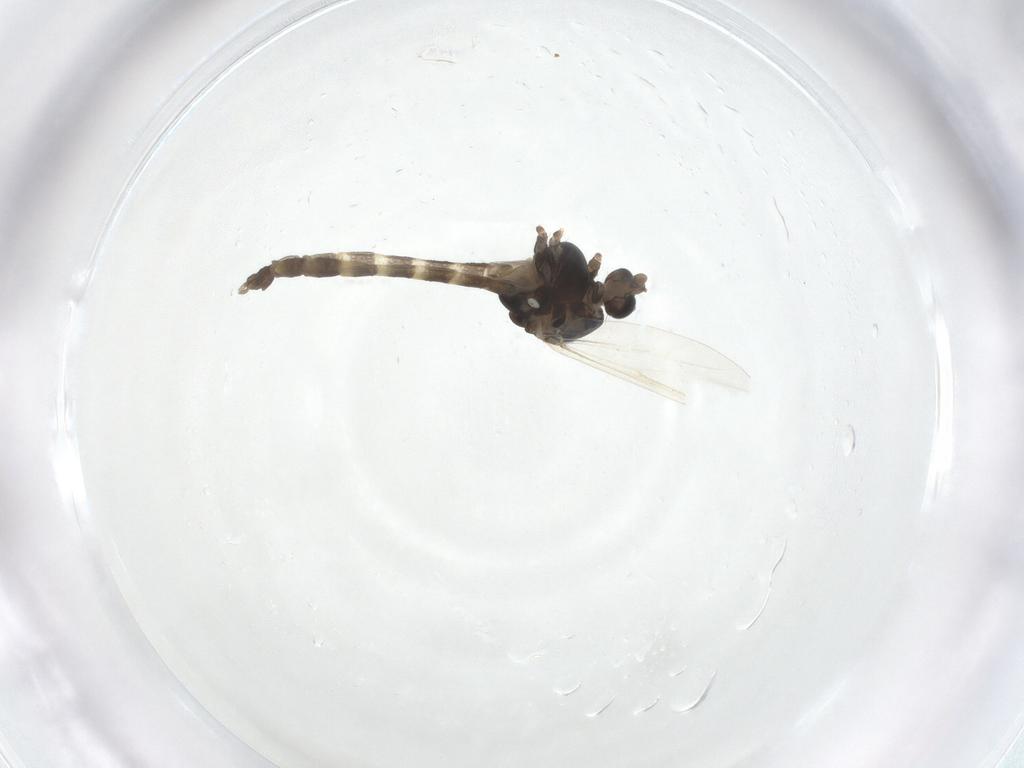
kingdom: Animalia
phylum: Arthropoda
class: Insecta
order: Diptera
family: Chironomidae
